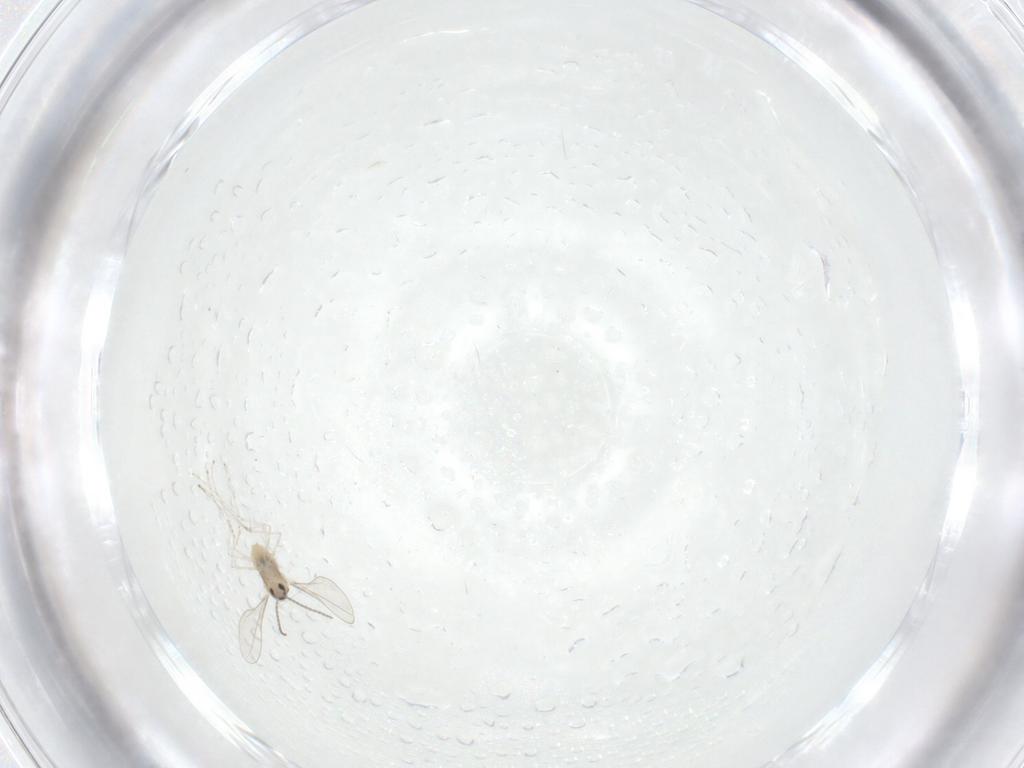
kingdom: Animalia
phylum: Arthropoda
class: Insecta
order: Diptera
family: Cecidomyiidae
